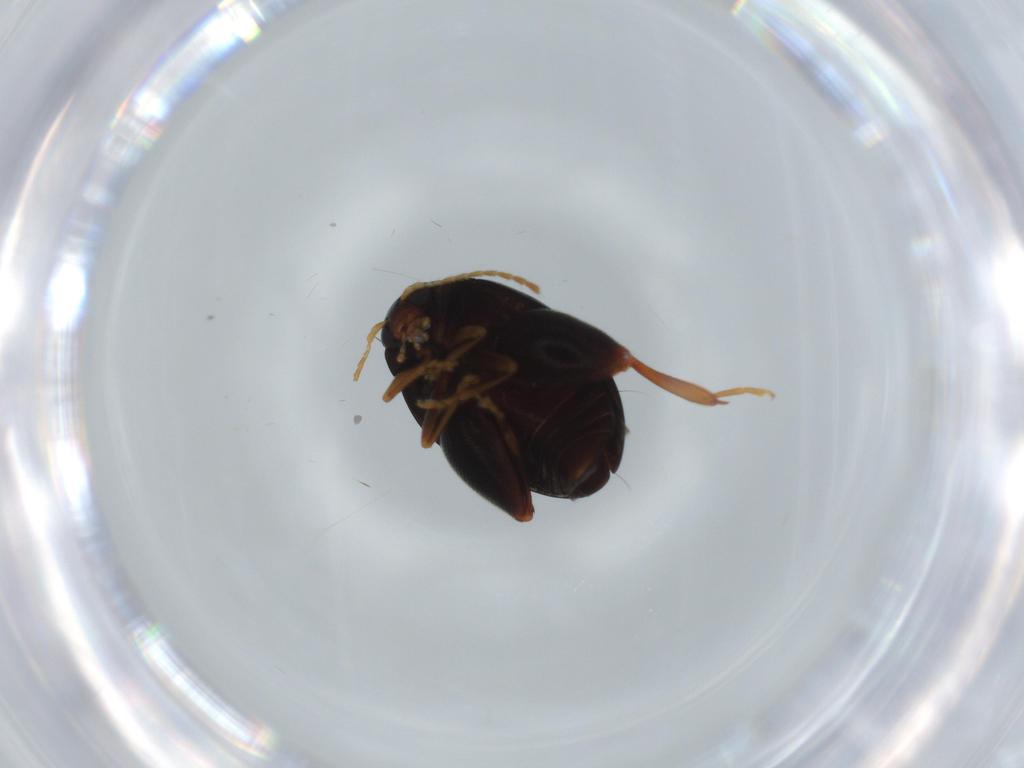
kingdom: Animalia
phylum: Arthropoda
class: Insecta
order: Coleoptera
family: Chrysomelidae
